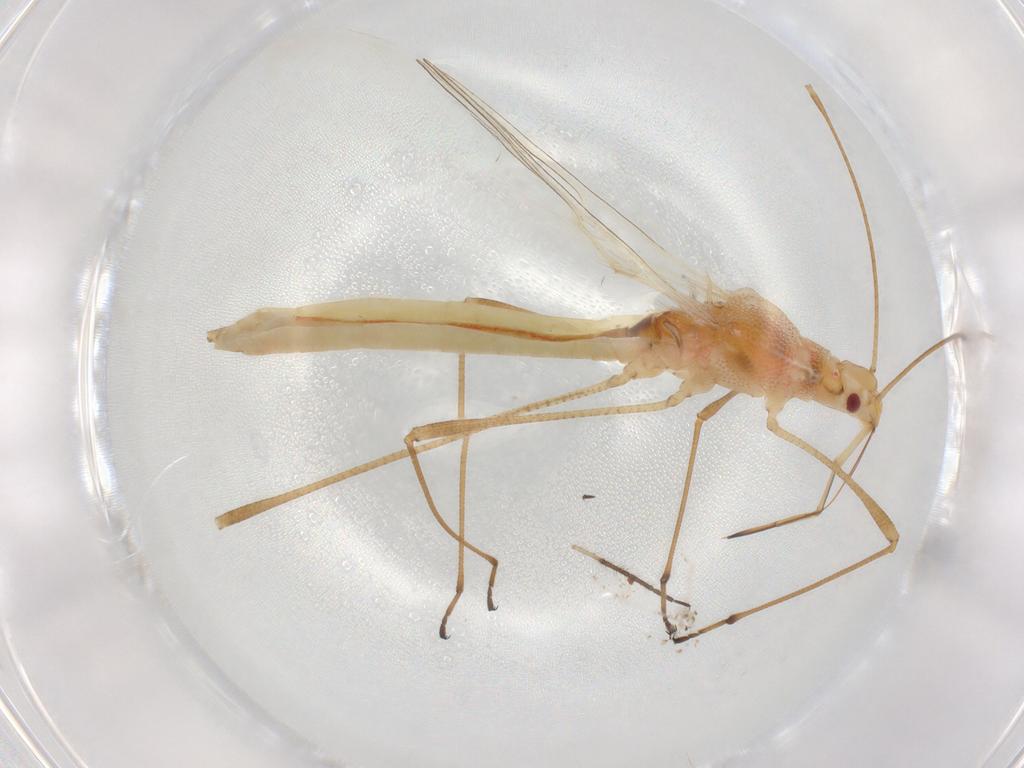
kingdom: Animalia
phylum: Arthropoda
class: Insecta
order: Hemiptera
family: Berytidae
